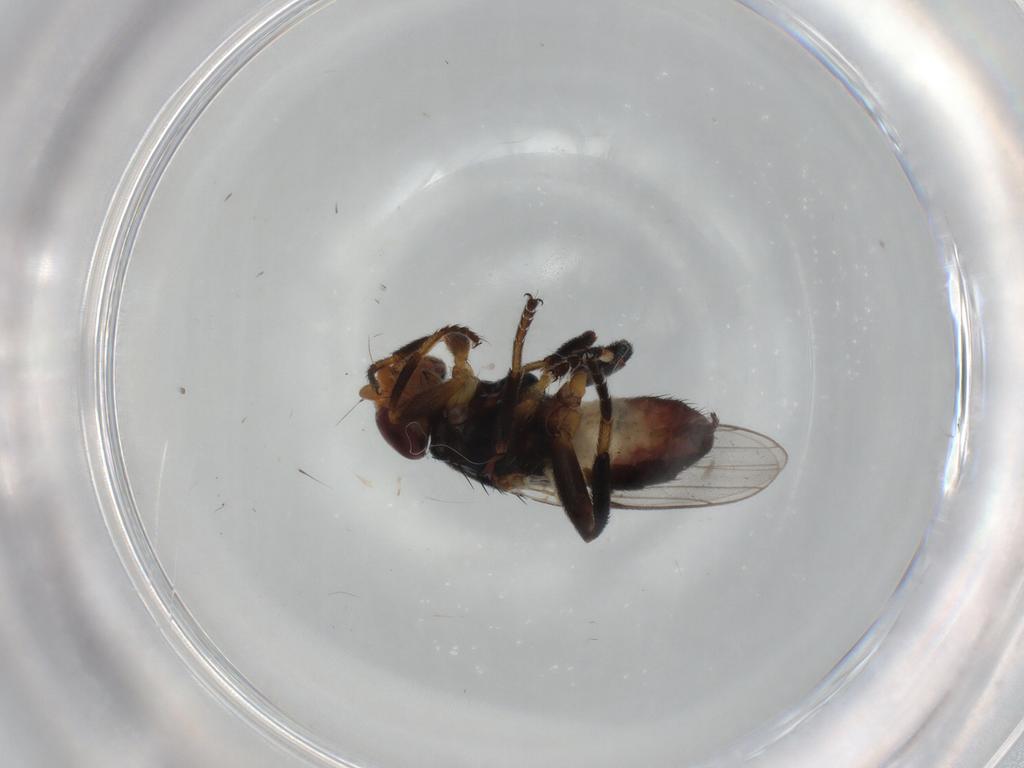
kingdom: Animalia
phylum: Arthropoda
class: Insecta
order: Diptera
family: Chloropidae
